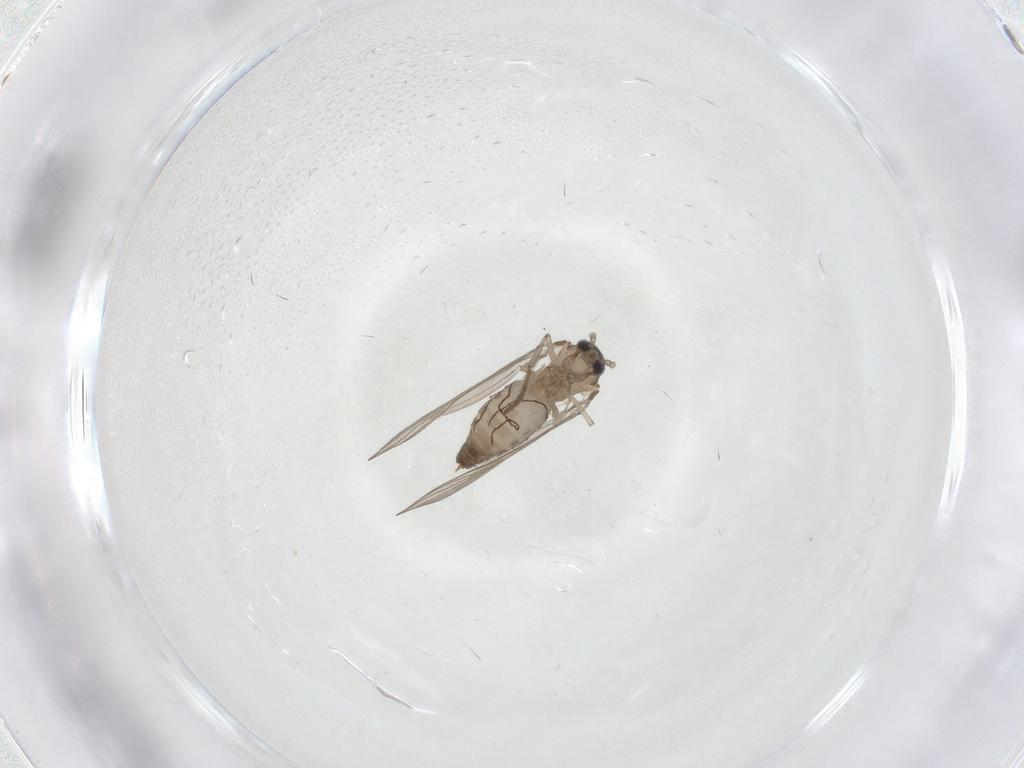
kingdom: Animalia
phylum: Arthropoda
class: Insecta
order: Diptera
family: Psychodidae
